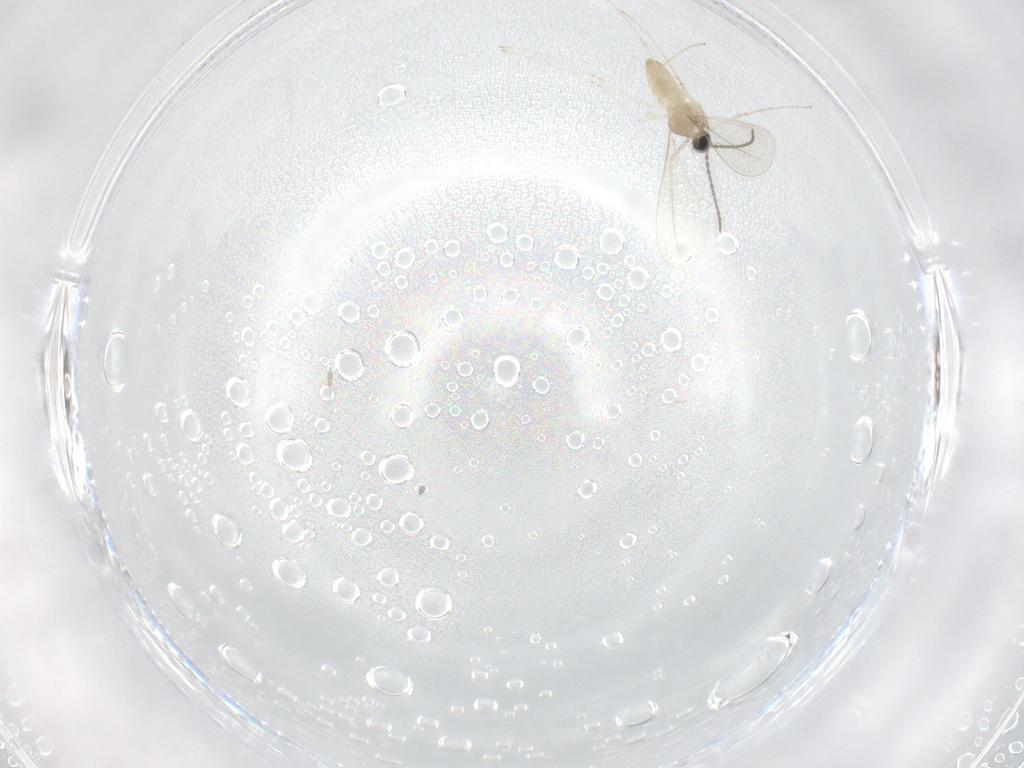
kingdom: Animalia
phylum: Arthropoda
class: Insecta
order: Diptera
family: Cecidomyiidae
